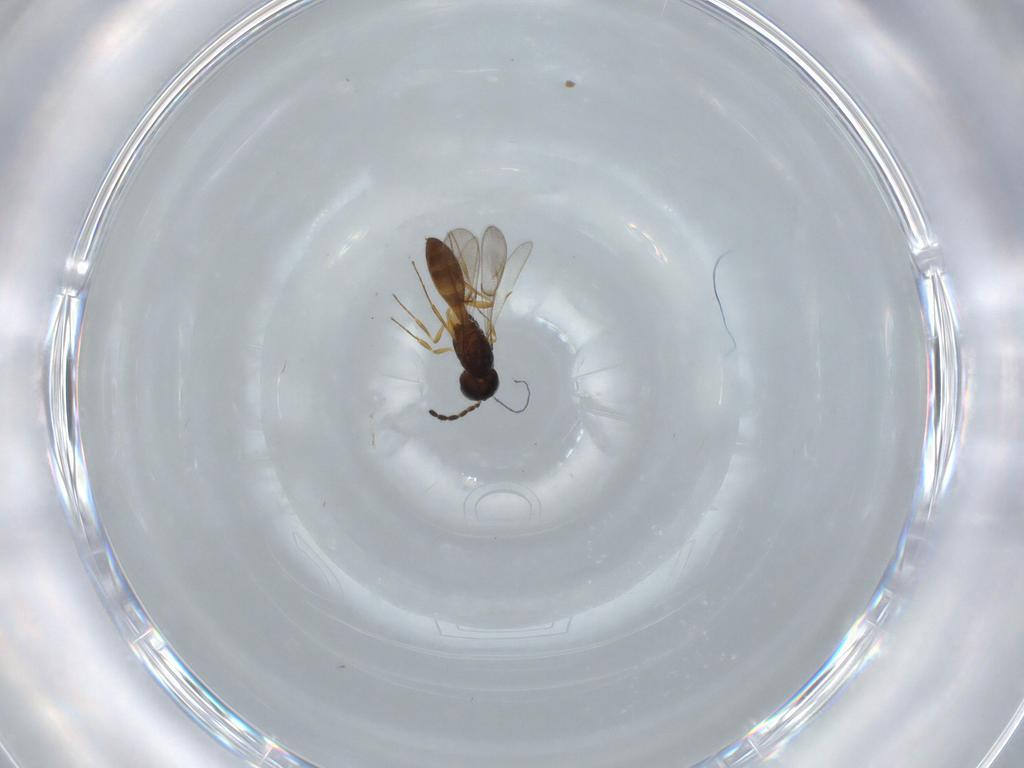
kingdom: Animalia
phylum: Arthropoda
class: Insecta
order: Hymenoptera
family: Scelionidae
